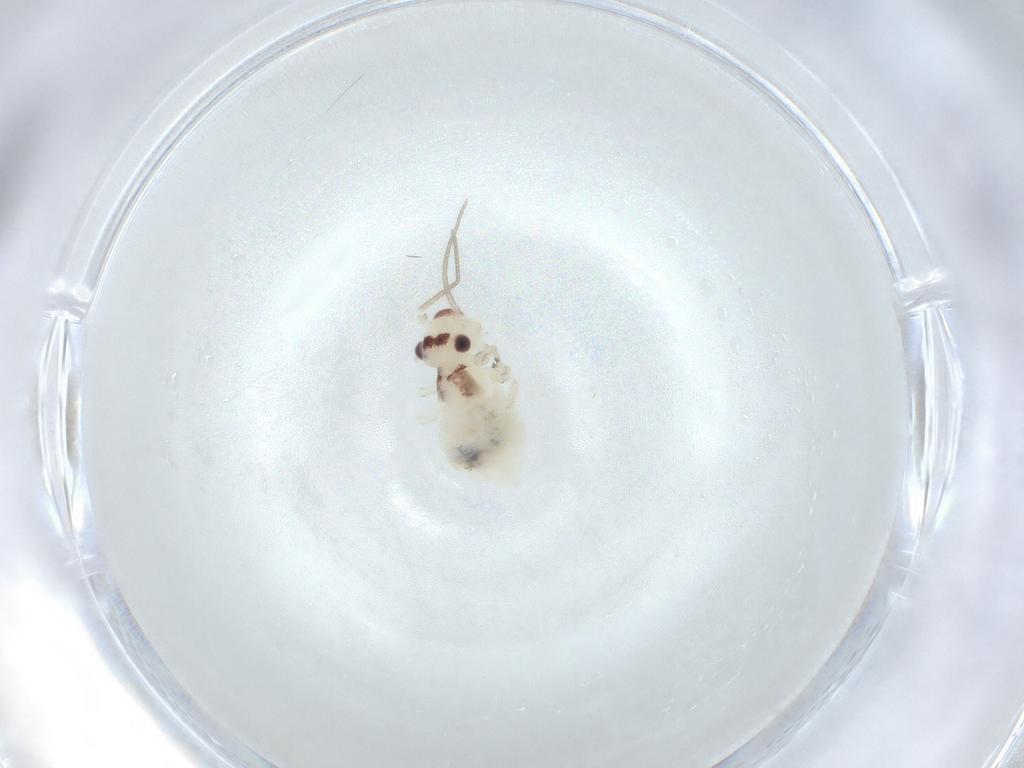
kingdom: Animalia
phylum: Arthropoda
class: Insecta
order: Psocodea
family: Amphipsocidae
